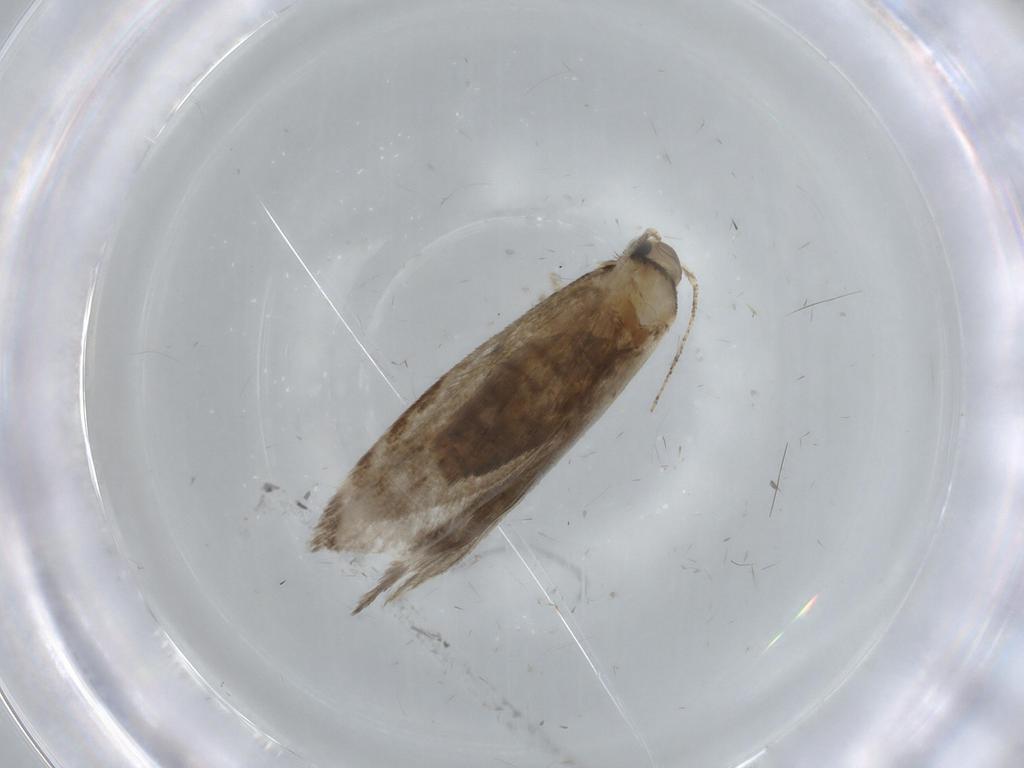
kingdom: Animalia
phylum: Arthropoda
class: Insecta
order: Lepidoptera
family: Tineidae
